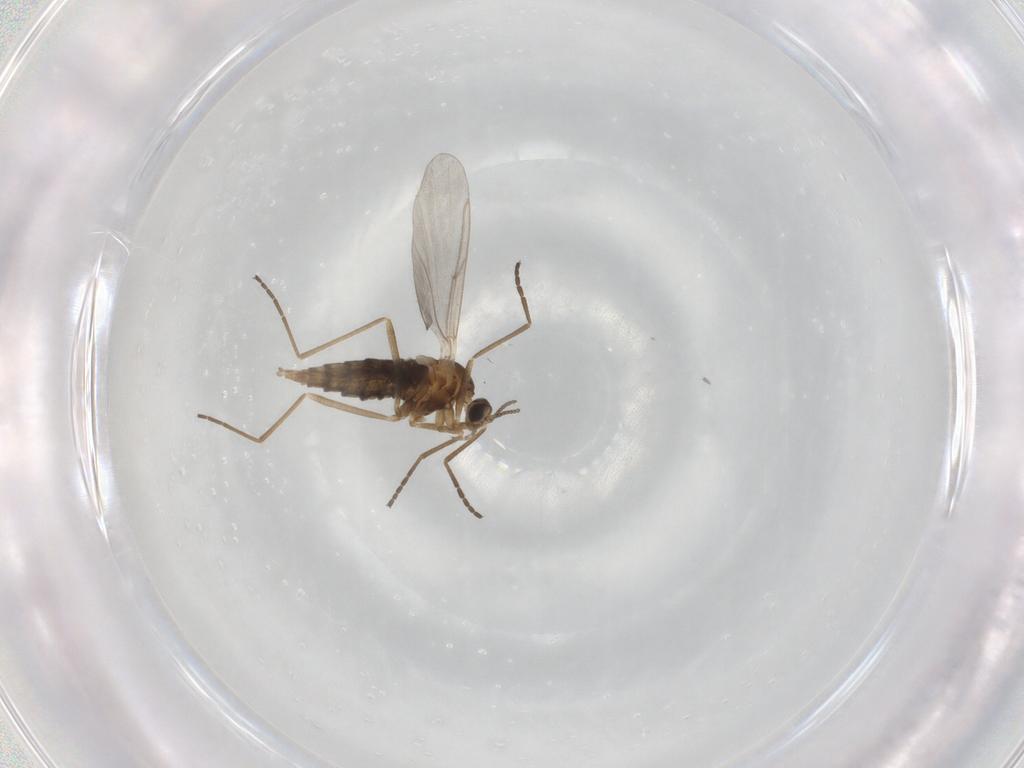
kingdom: Animalia
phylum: Arthropoda
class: Insecta
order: Diptera
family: Cecidomyiidae
